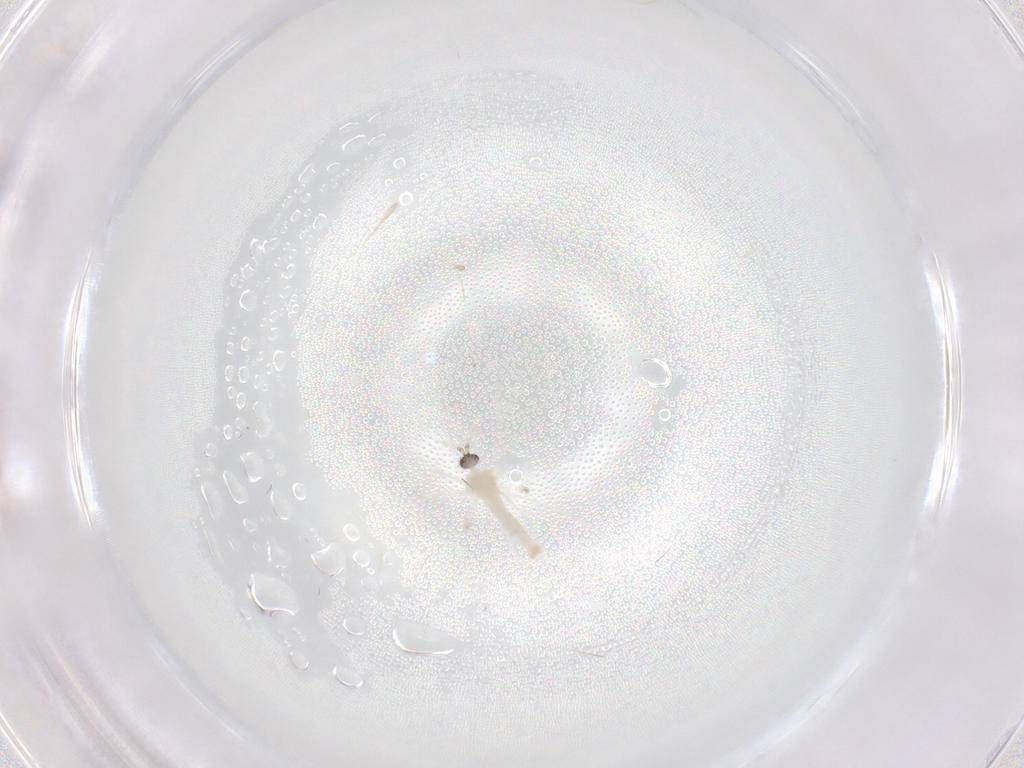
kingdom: Animalia
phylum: Arthropoda
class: Insecta
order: Diptera
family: Cecidomyiidae
